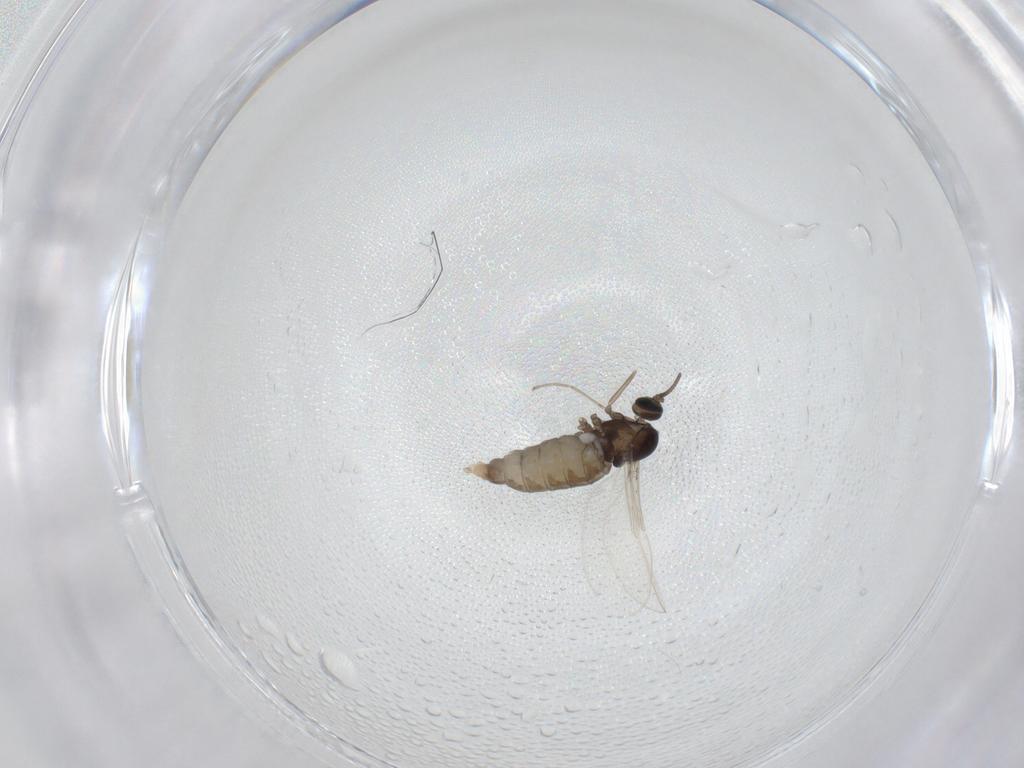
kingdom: Animalia
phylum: Arthropoda
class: Insecta
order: Diptera
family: Cecidomyiidae
